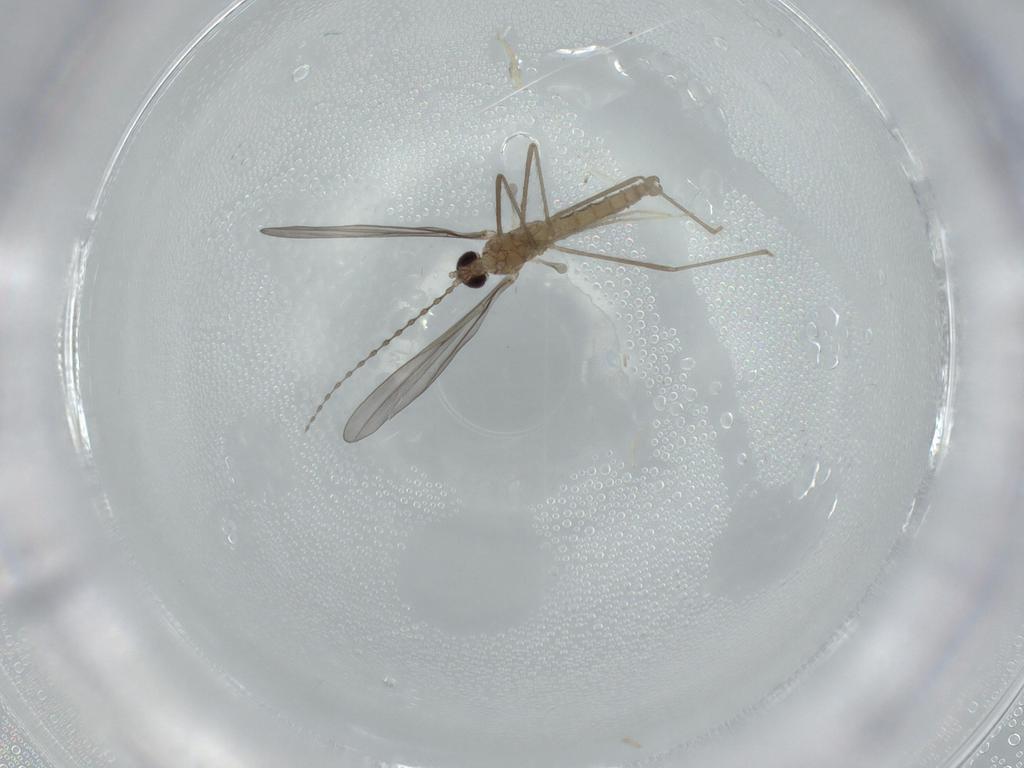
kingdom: Animalia
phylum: Arthropoda
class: Insecta
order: Diptera
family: Cecidomyiidae
